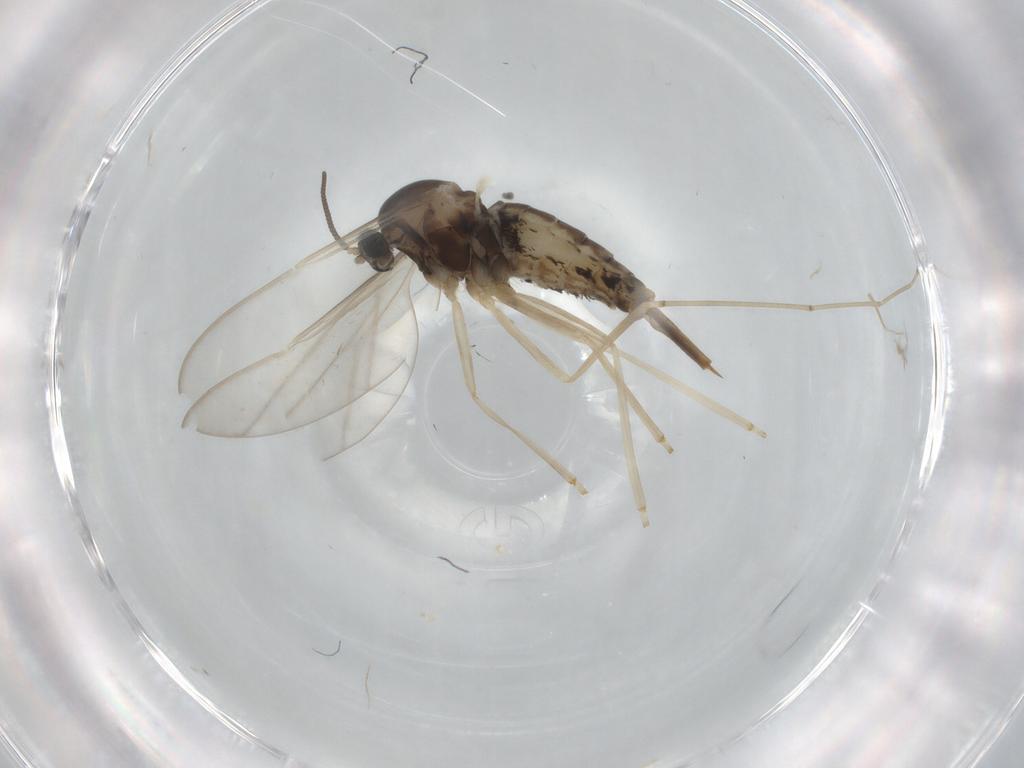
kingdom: Animalia
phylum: Arthropoda
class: Insecta
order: Diptera
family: Cecidomyiidae
